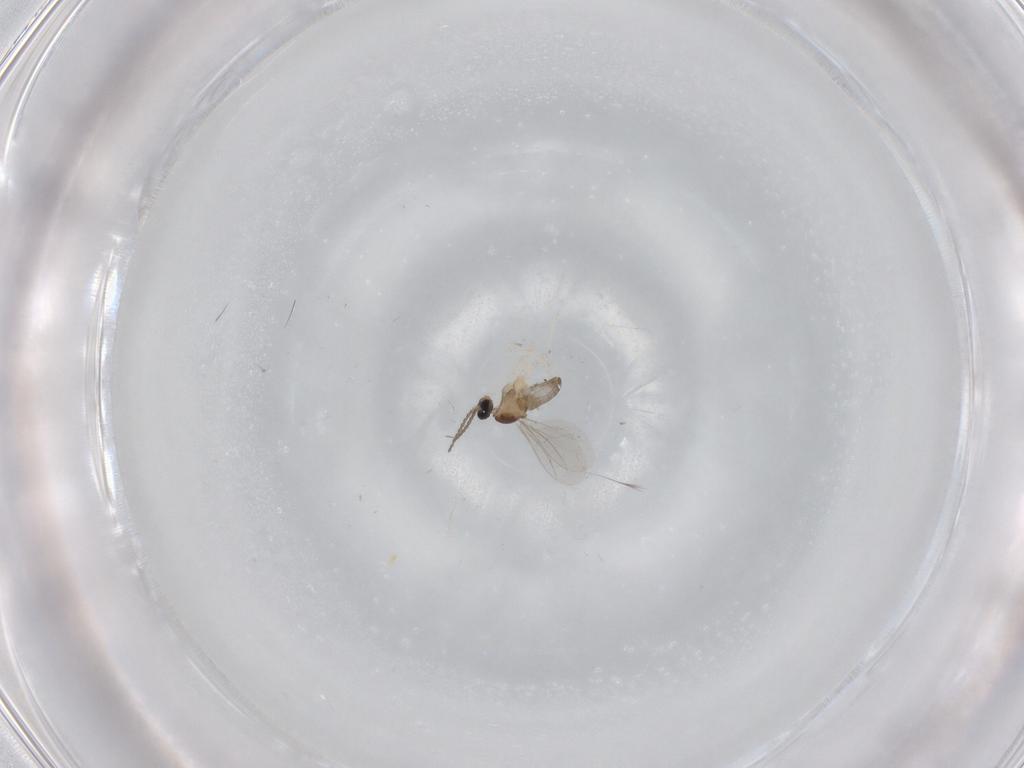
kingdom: Animalia
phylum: Arthropoda
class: Insecta
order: Diptera
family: Cecidomyiidae
